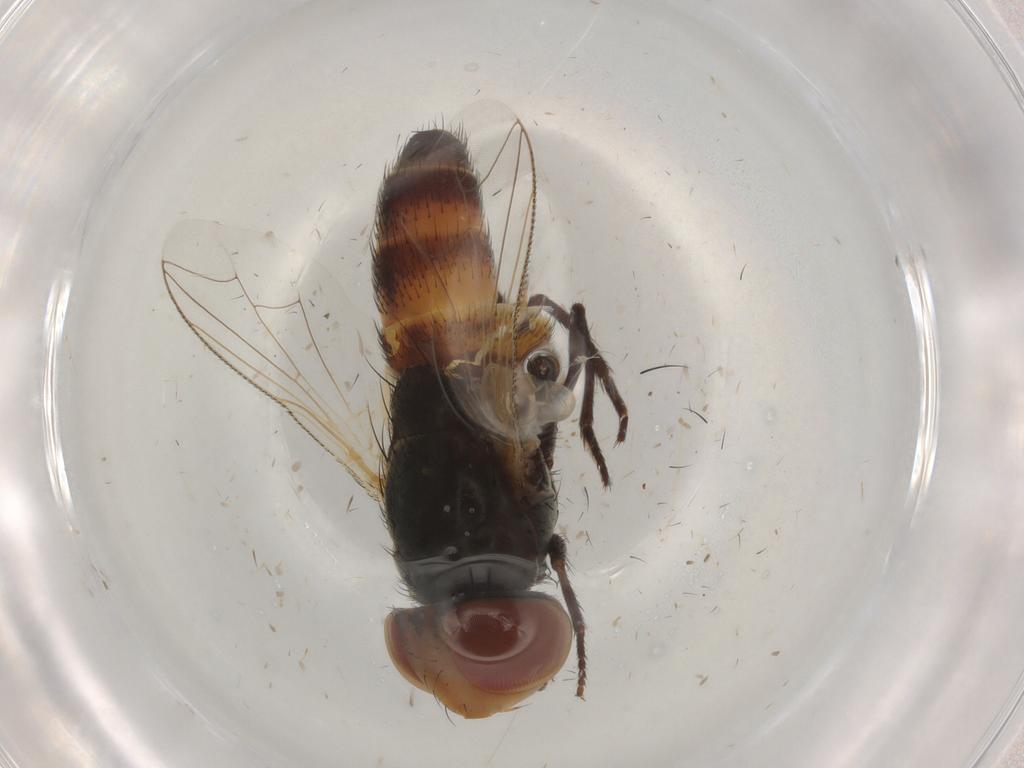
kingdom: Animalia
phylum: Arthropoda
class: Insecta
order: Diptera
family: Sarcophagidae
